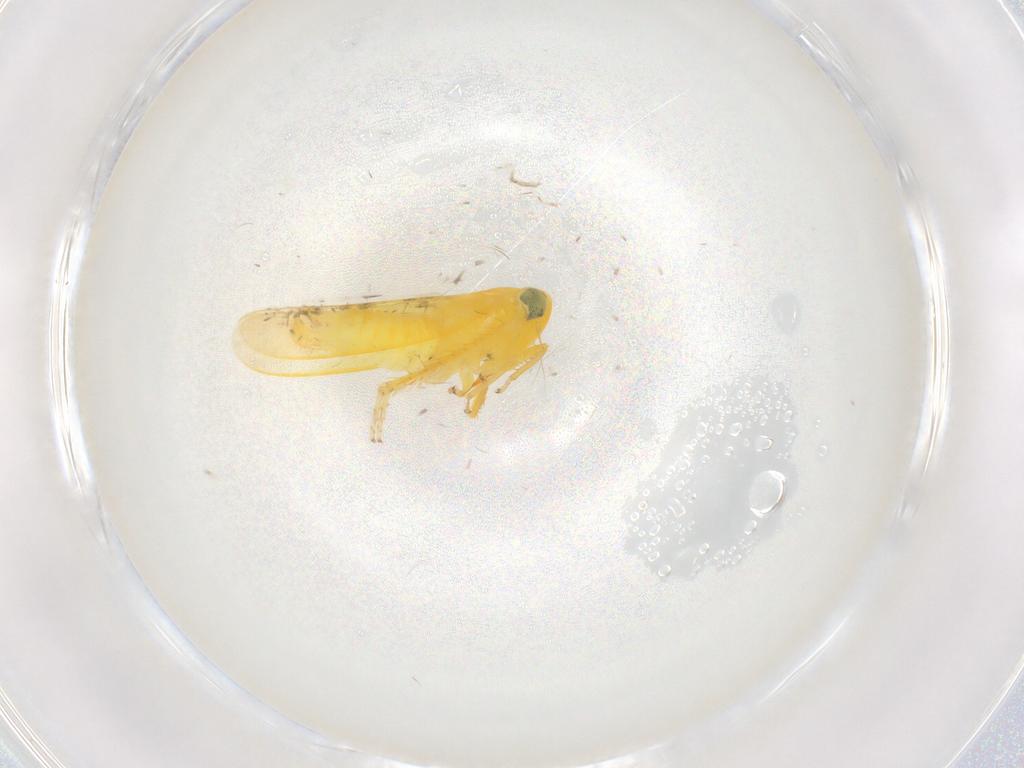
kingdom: Animalia
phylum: Arthropoda
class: Insecta
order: Hemiptera
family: Cicadellidae
